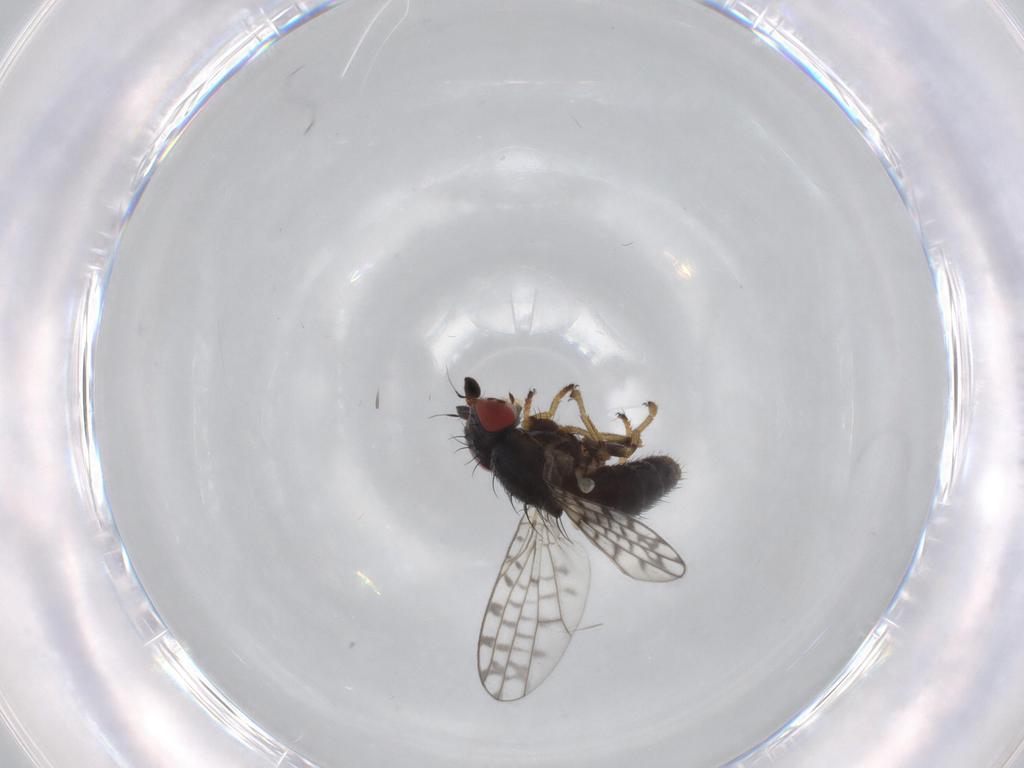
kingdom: Animalia
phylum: Arthropoda
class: Insecta
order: Diptera
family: Chamaemyiidae
